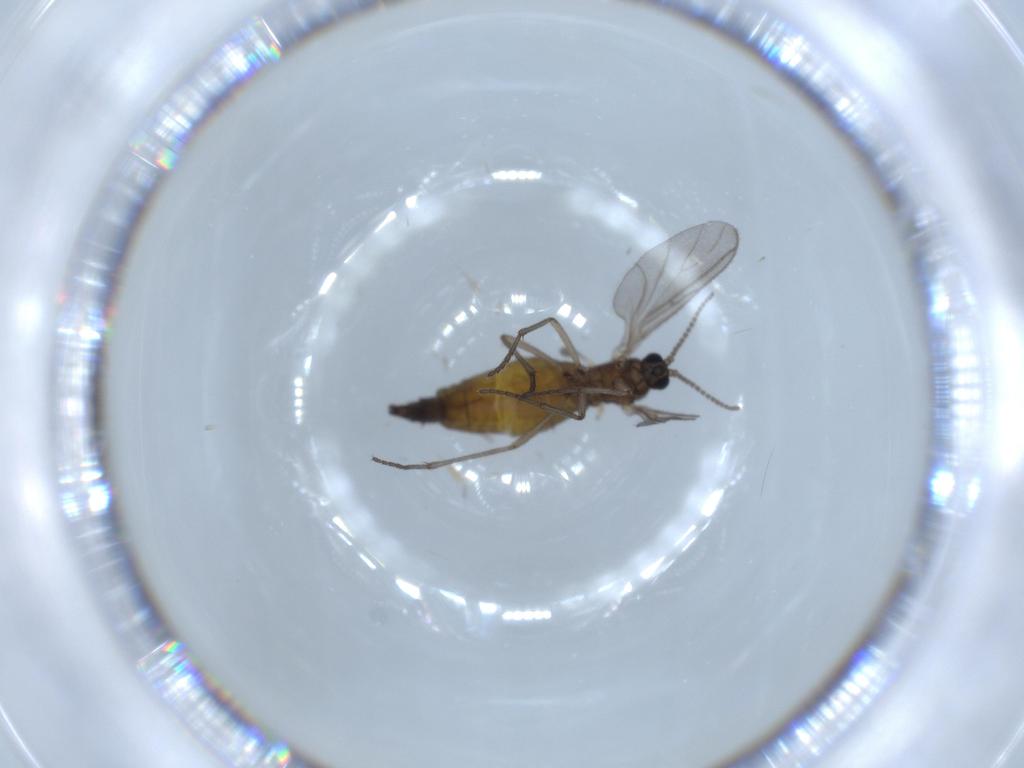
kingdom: Animalia
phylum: Arthropoda
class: Insecta
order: Diptera
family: Sciaridae
